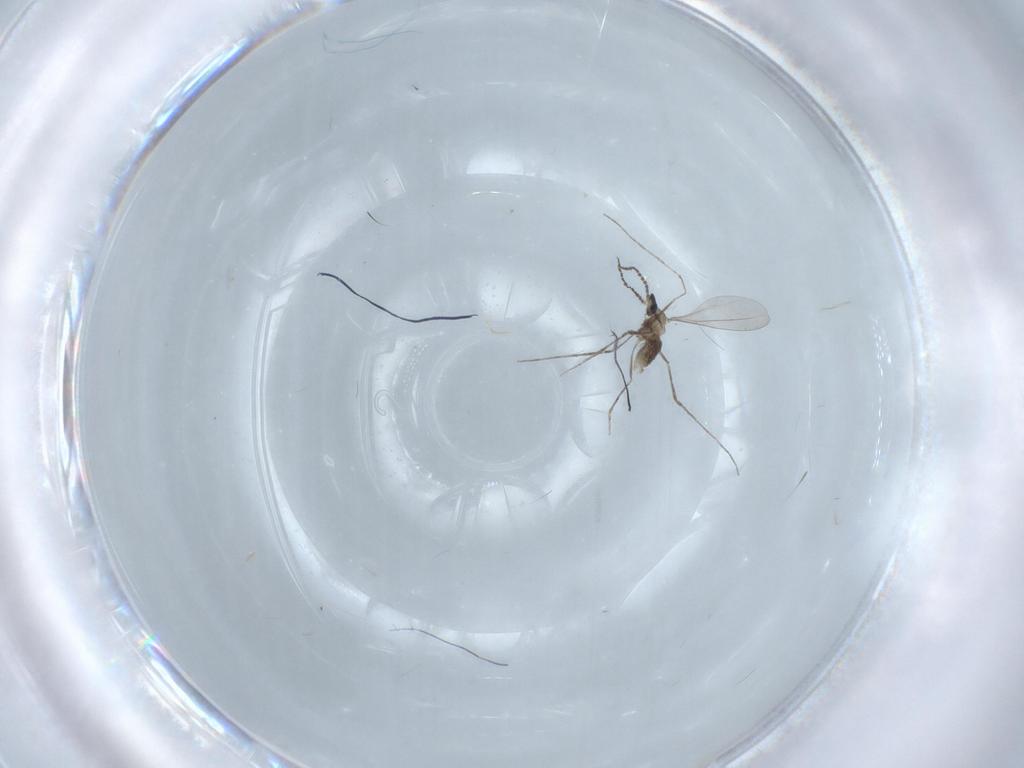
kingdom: Animalia
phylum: Arthropoda
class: Insecta
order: Diptera
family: Cecidomyiidae
